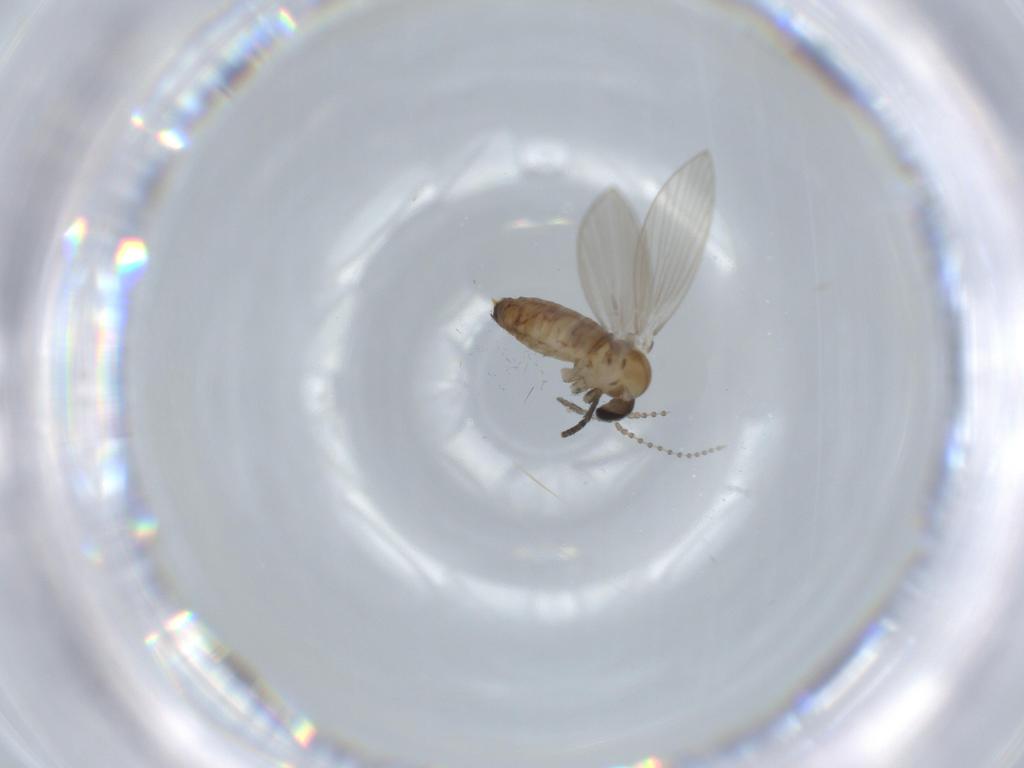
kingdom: Animalia
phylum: Arthropoda
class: Insecta
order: Diptera
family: Psychodidae
